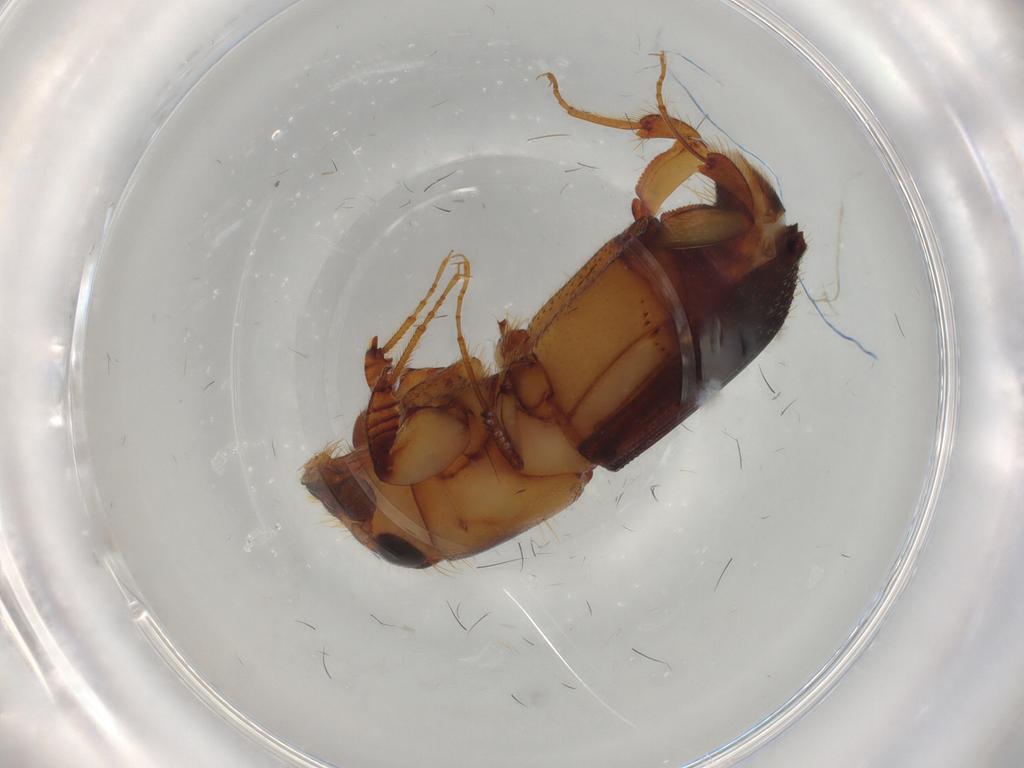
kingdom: Animalia
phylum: Arthropoda
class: Insecta
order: Coleoptera
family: Curculionidae
